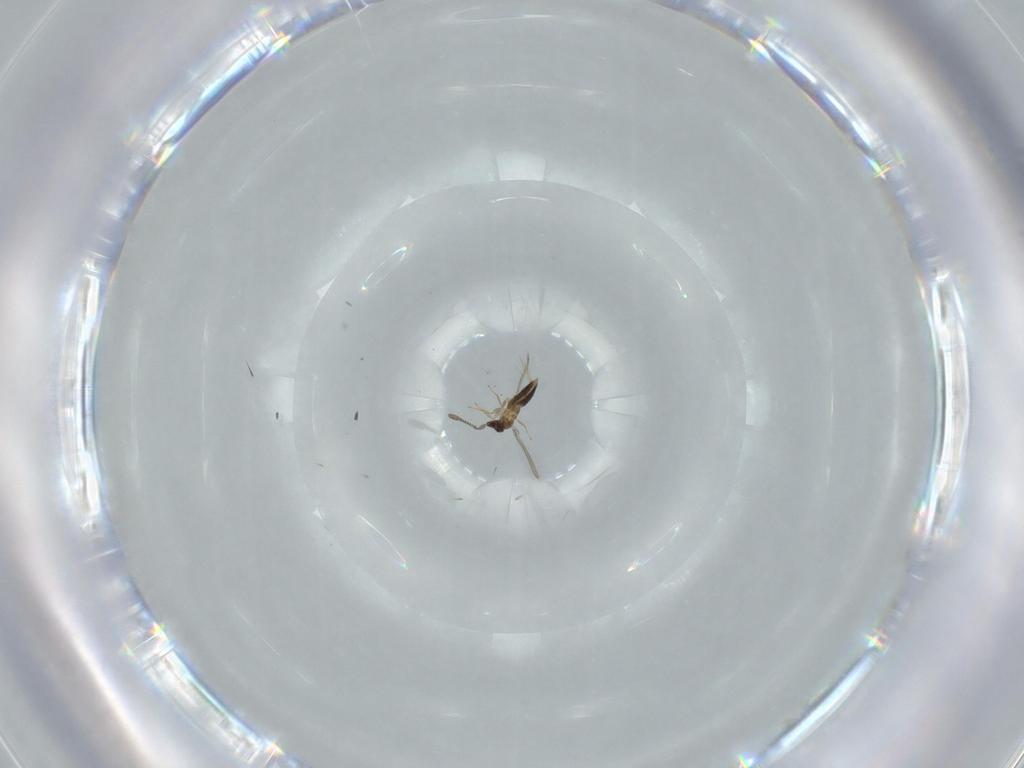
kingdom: Animalia
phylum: Arthropoda
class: Insecta
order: Hymenoptera
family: Mymaridae
